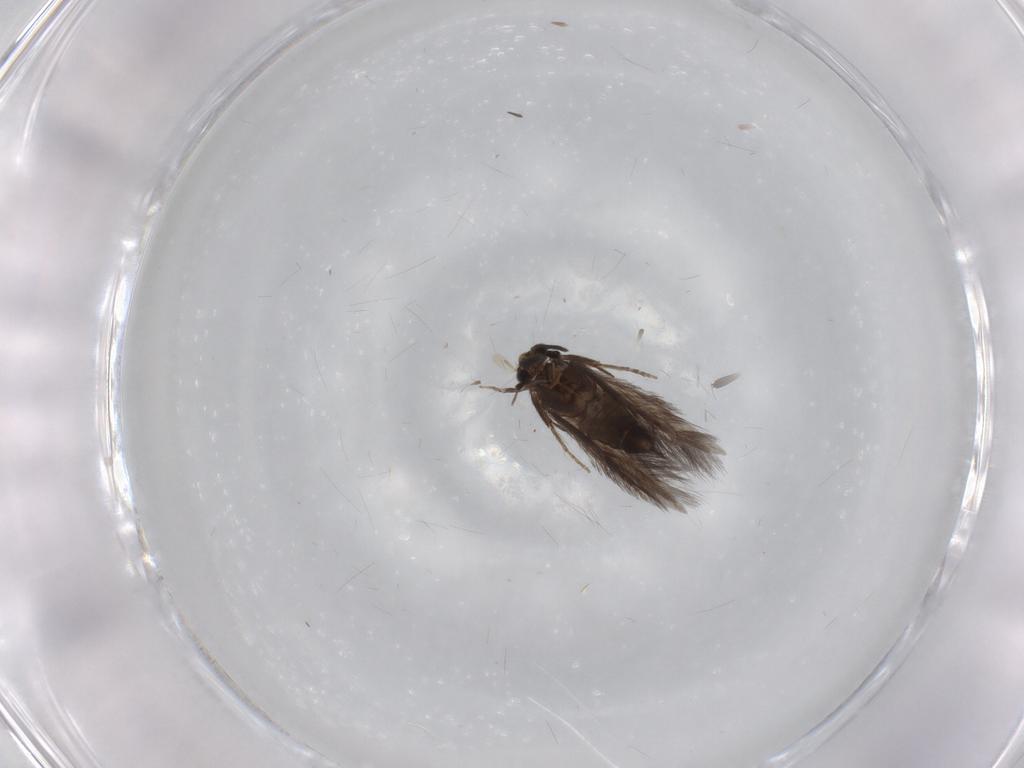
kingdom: Animalia
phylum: Arthropoda
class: Insecta
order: Trichoptera
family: Hydroptilidae
